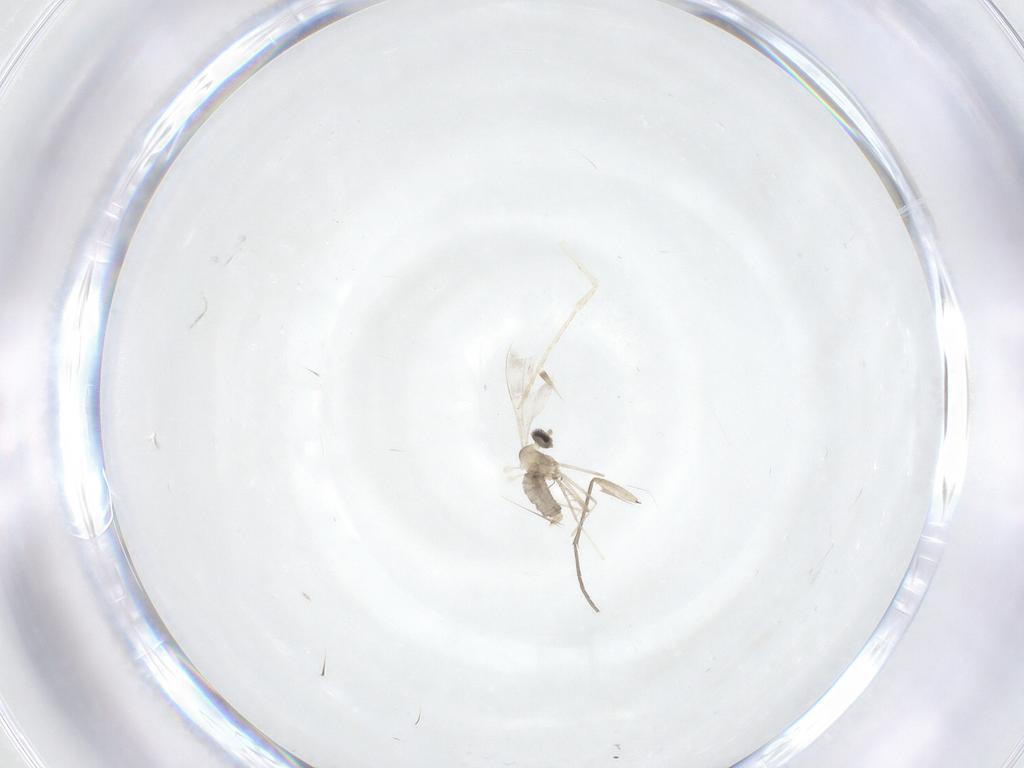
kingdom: Animalia
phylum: Arthropoda
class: Insecta
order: Diptera
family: Cecidomyiidae
